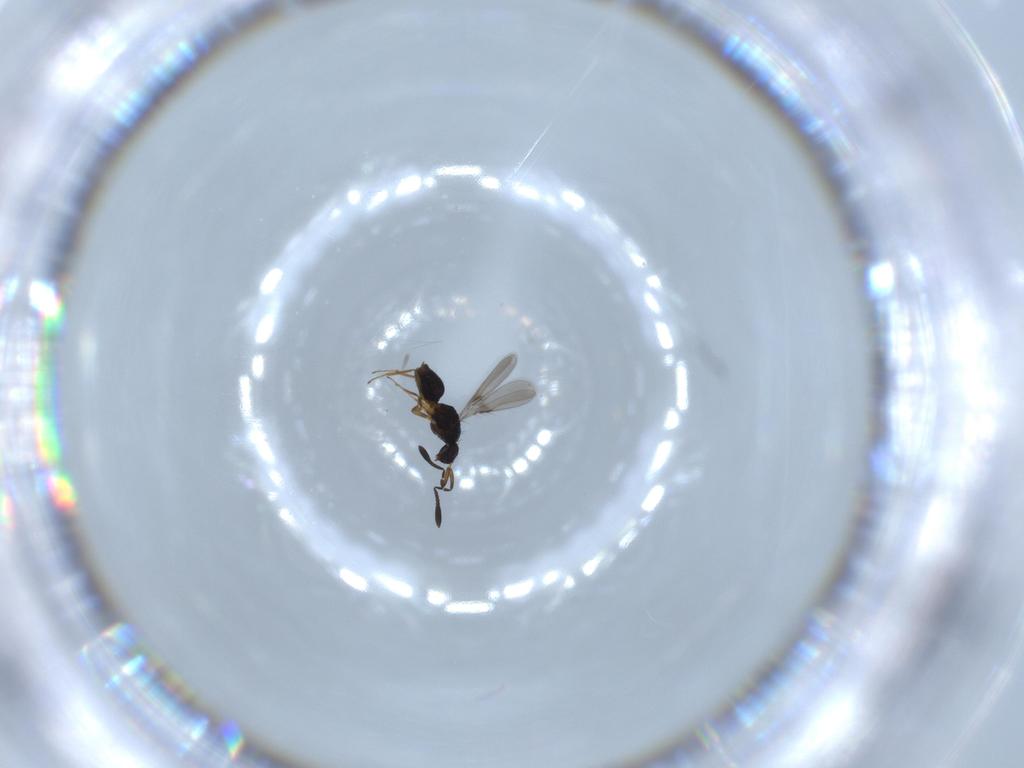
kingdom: Animalia
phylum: Arthropoda
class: Insecta
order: Hymenoptera
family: Mymaridae
